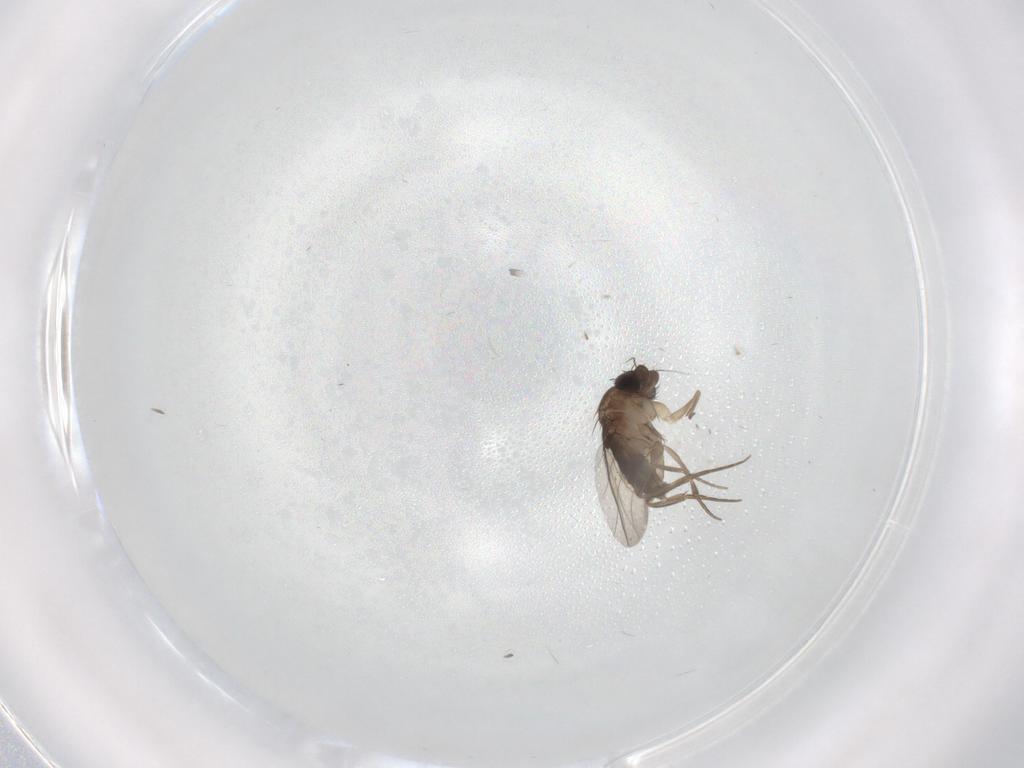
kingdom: Animalia
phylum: Arthropoda
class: Insecta
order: Diptera
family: Phoridae
